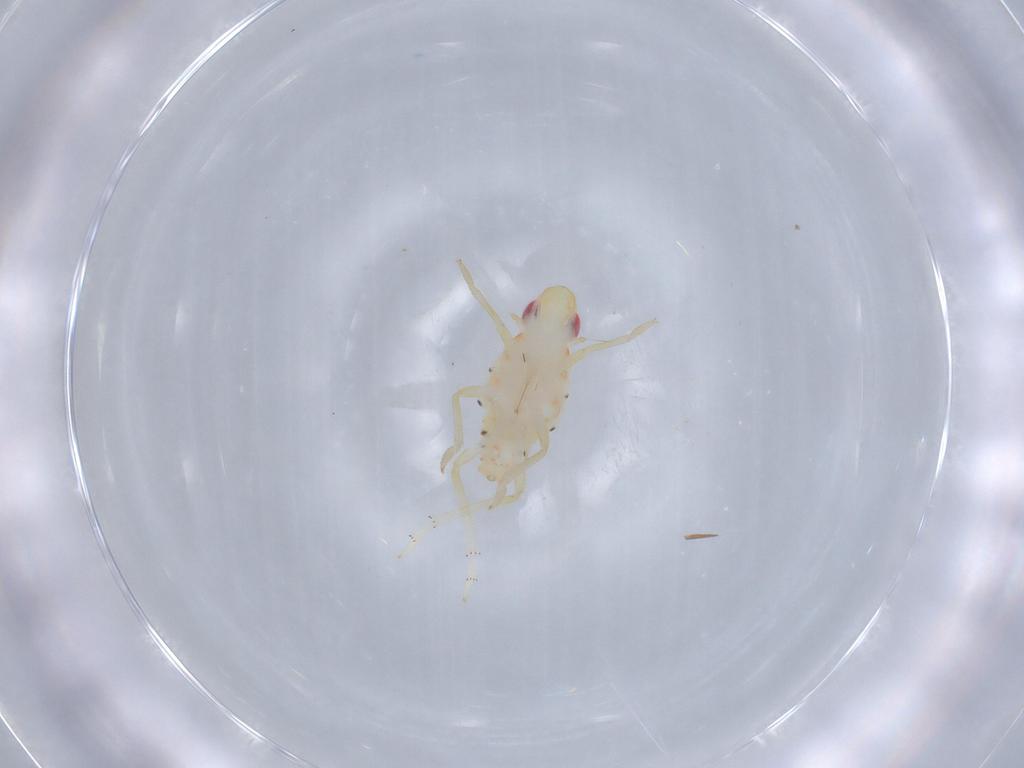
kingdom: Animalia
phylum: Arthropoda
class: Insecta
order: Hemiptera
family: Tropiduchidae
